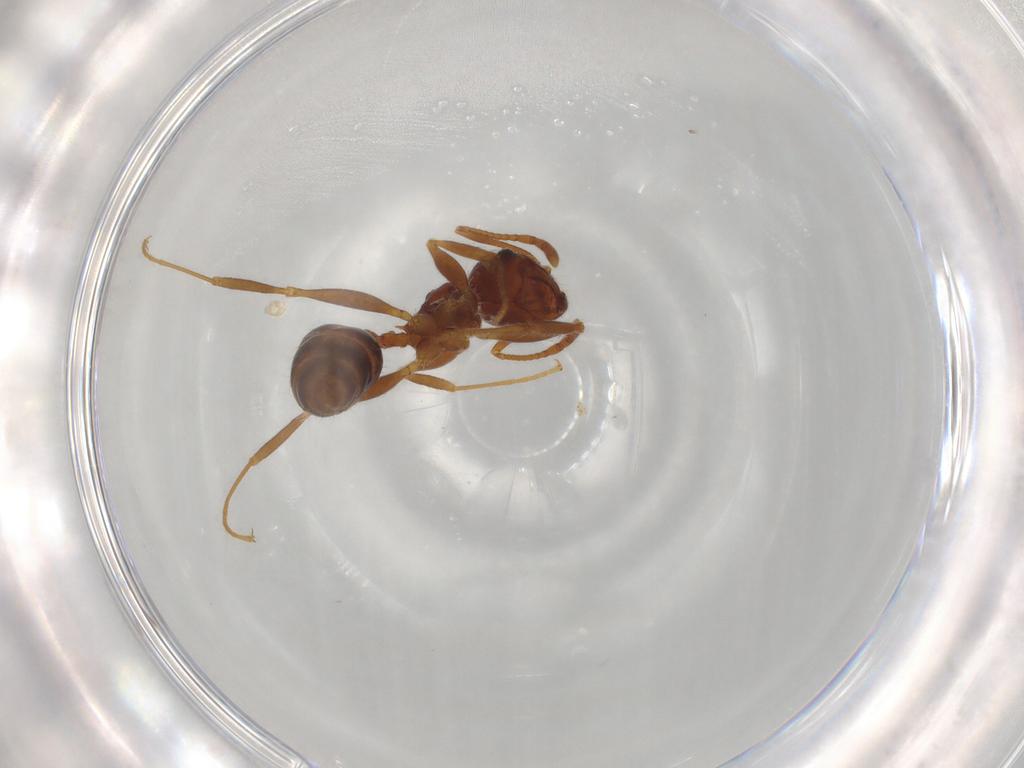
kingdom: Animalia
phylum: Arthropoda
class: Insecta
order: Hymenoptera
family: Formicidae
